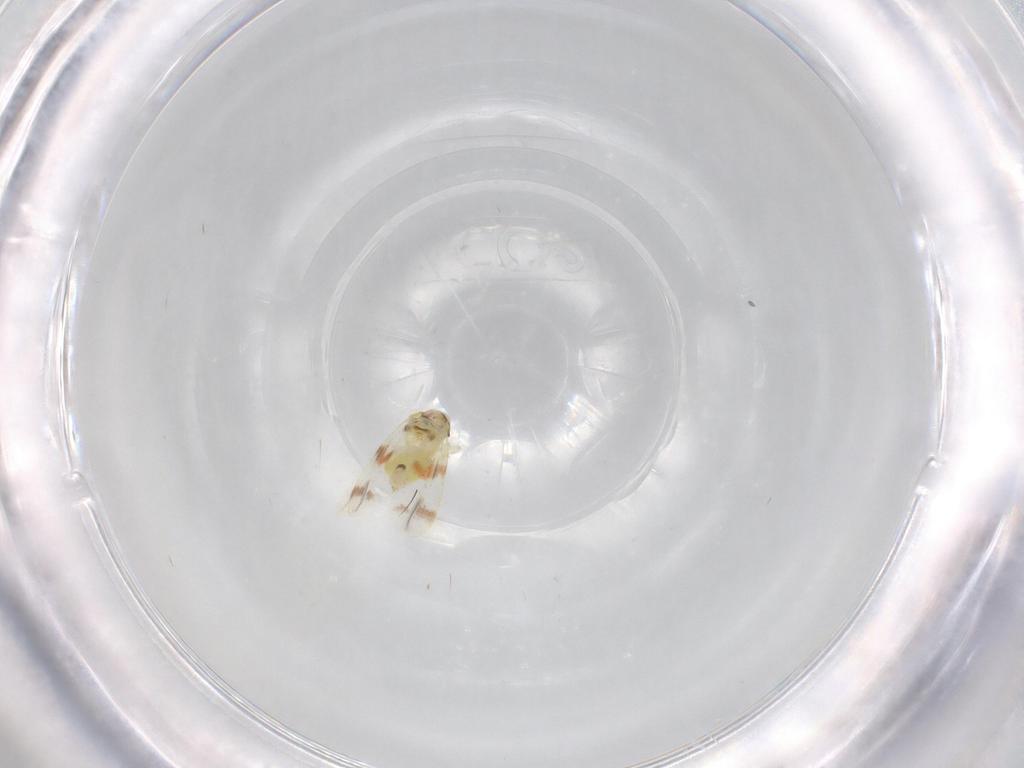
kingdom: Animalia
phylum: Arthropoda
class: Insecta
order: Hemiptera
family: Aleyrodidae
